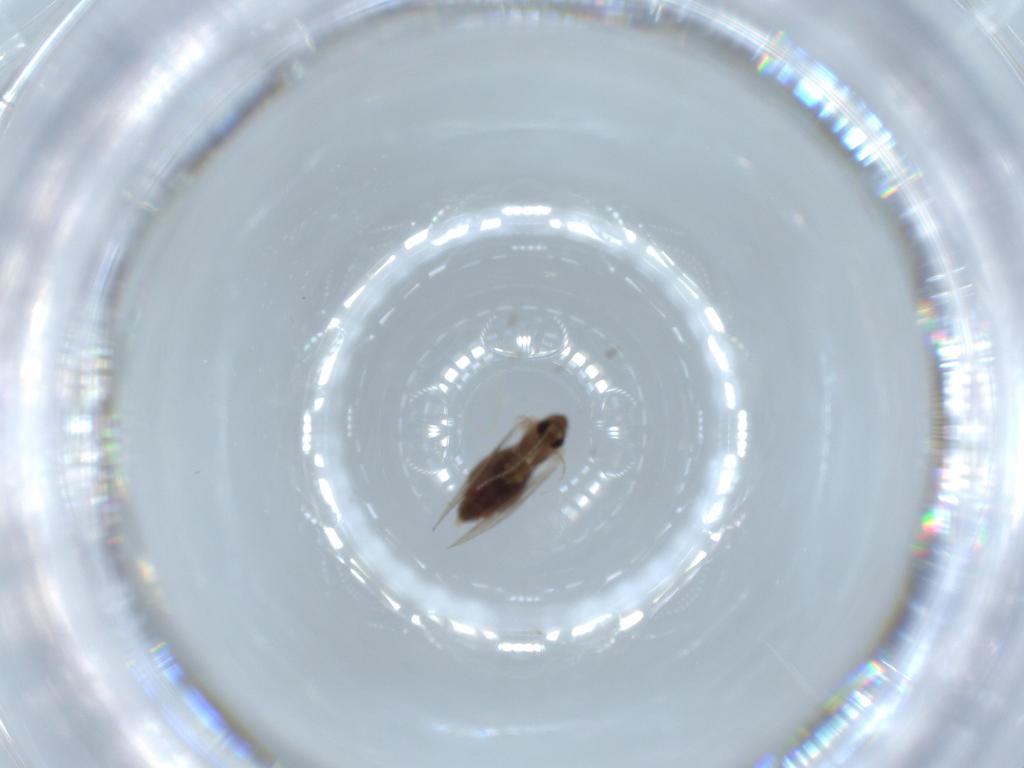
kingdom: Animalia
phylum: Arthropoda
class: Insecta
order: Diptera
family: Psychodidae
